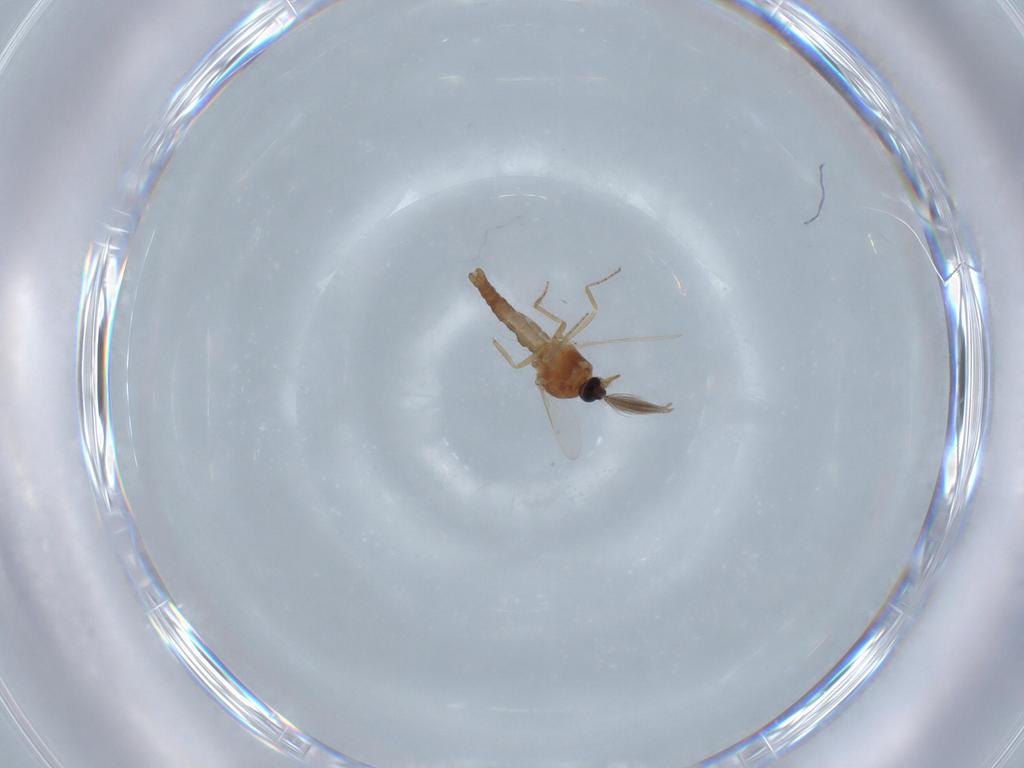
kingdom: Animalia
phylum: Arthropoda
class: Insecta
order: Diptera
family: Ceratopogonidae
